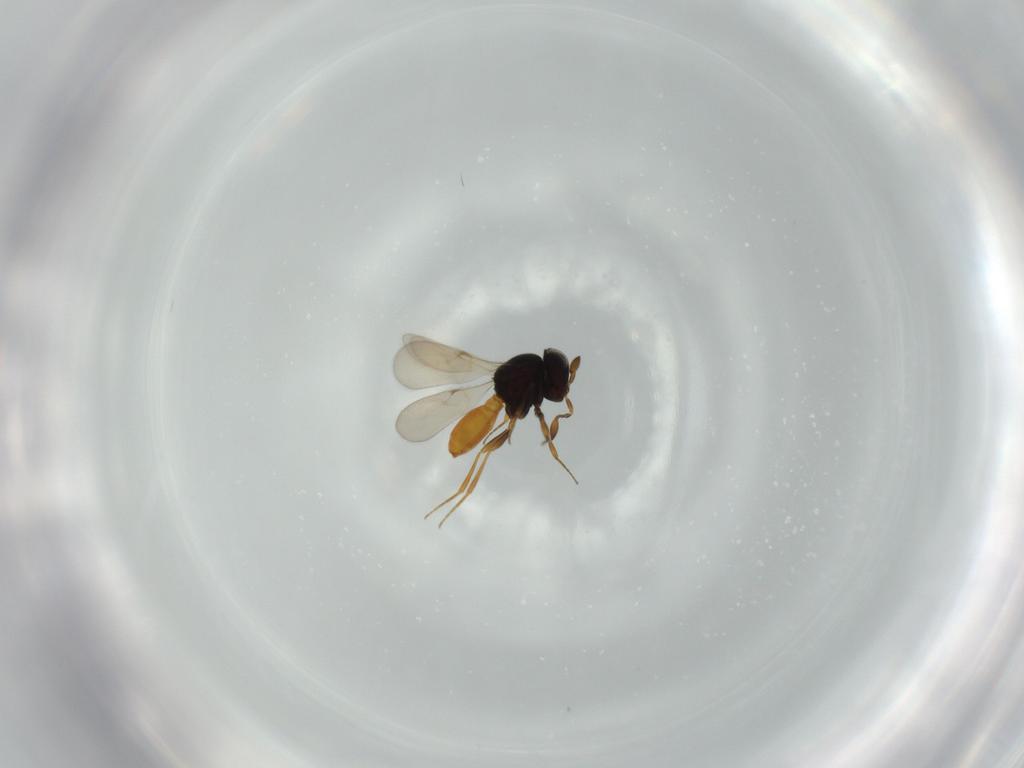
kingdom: Animalia
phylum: Arthropoda
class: Insecta
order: Hymenoptera
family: Scelionidae
